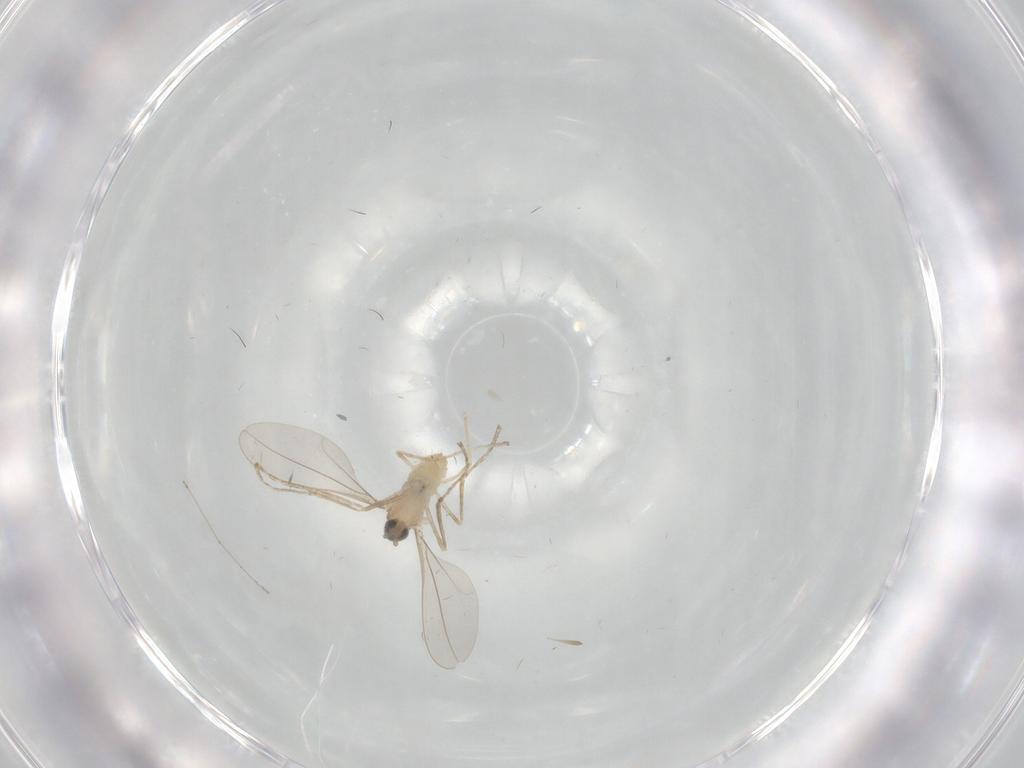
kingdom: Animalia
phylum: Arthropoda
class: Insecta
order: Diptera
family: Cecidomyiidae
